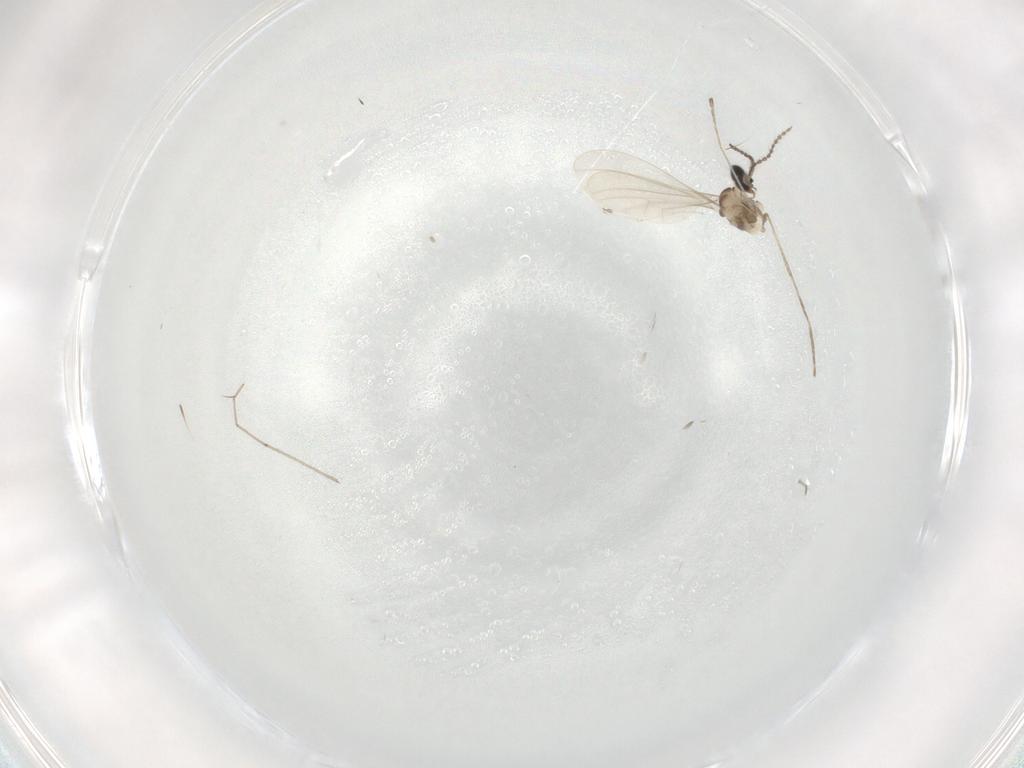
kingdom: Animalia
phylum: Arthropoda
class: Insecta
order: Diptera
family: Cecidomyiidae
